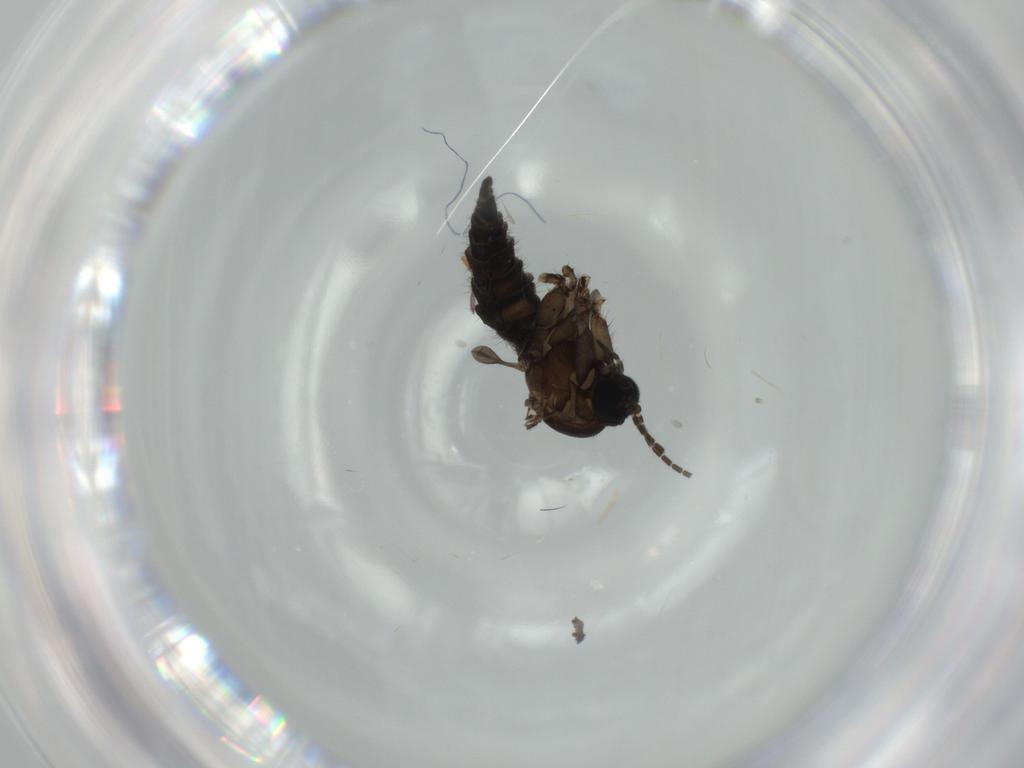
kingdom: Animalia
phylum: Arthropoda
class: Insecta
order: Diptera
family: Sciaridae
